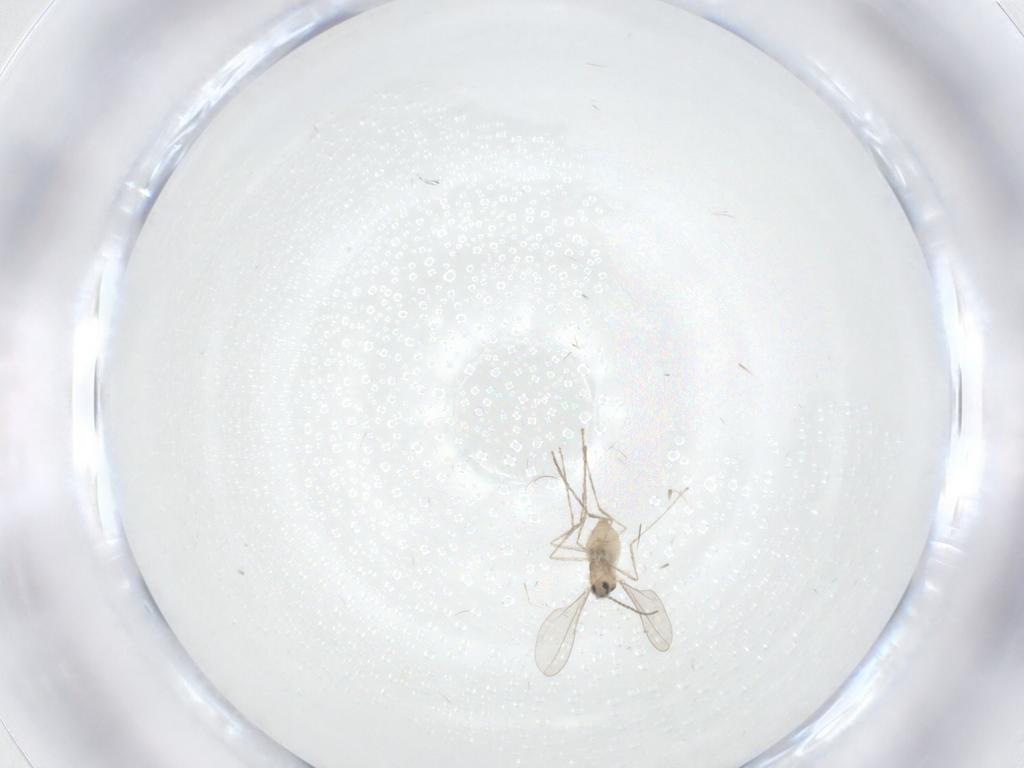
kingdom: Animalia
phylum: Arthropoda
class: Insecta
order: Diptera
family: Cecidomyiidae
